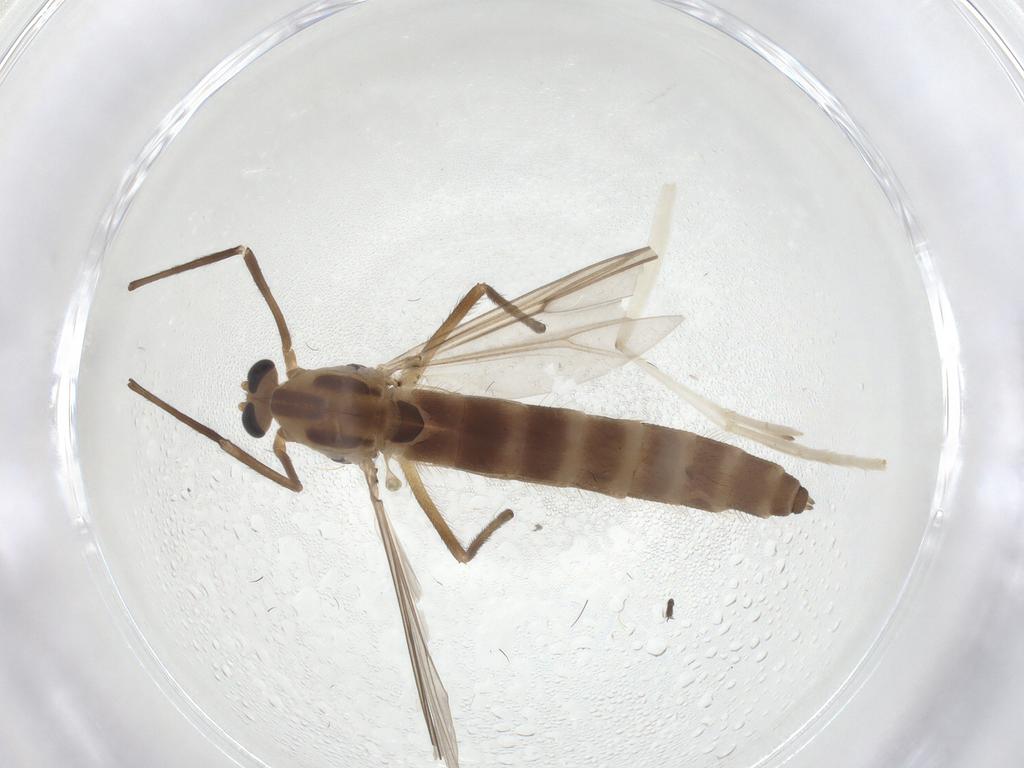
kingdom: Animalia
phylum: Arthropoda
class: Insecta
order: Diptera
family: Chironomidae
